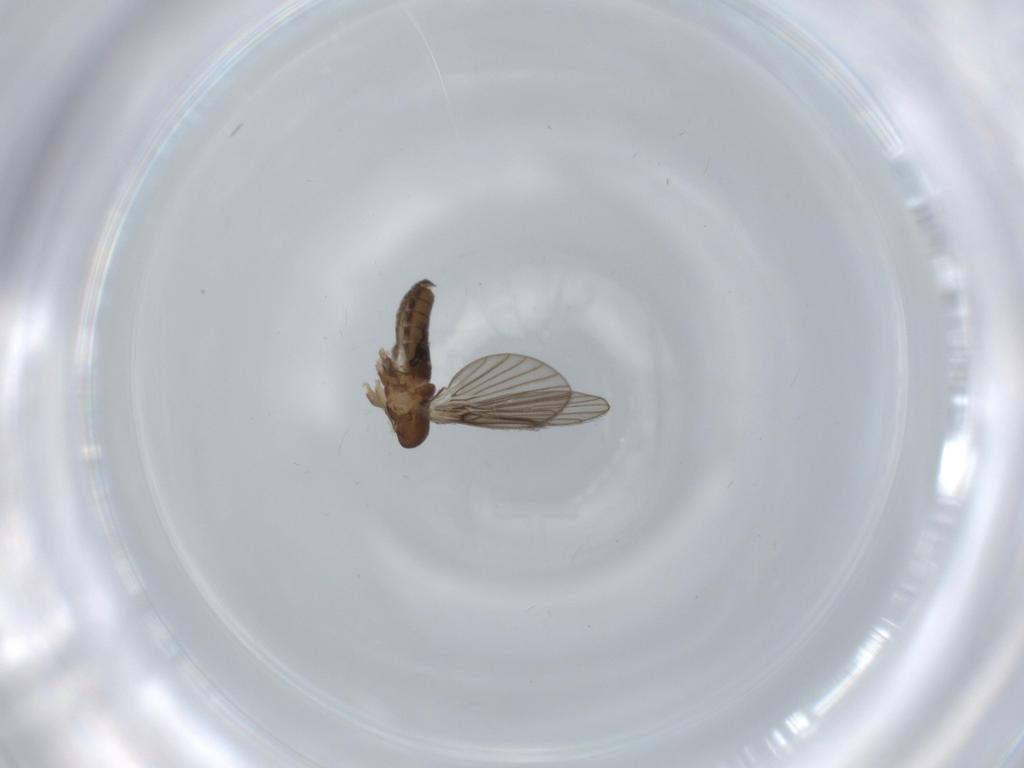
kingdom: Animalia
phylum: Arthropoda
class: Insecta
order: Diptera
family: Psychodidae
